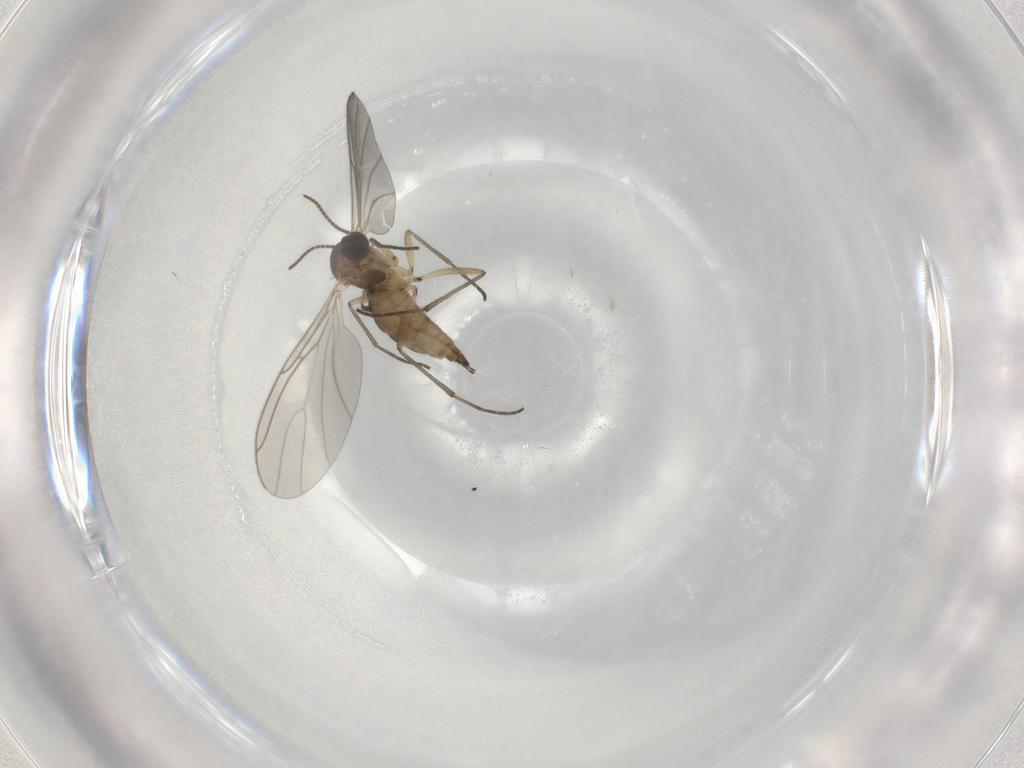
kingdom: Animalia
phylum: Arthropoda
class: Insecta
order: Diptera
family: Sciaridae
